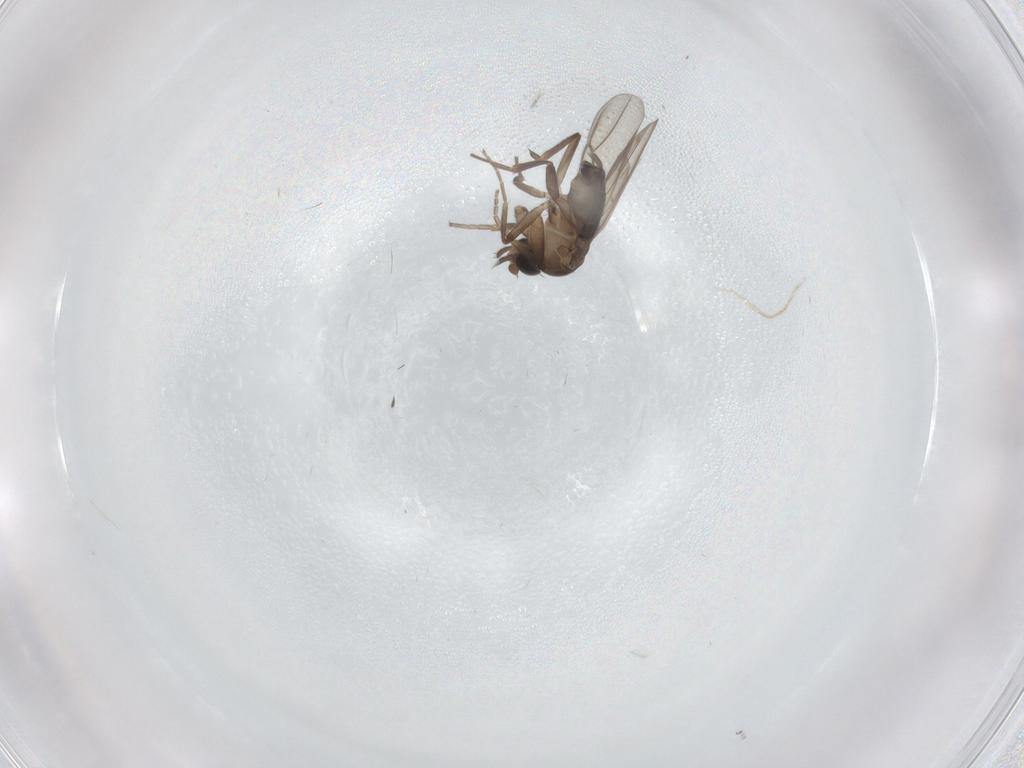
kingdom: Animalia
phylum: Arthropoda
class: Insecta
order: Diptera
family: Phoridae
